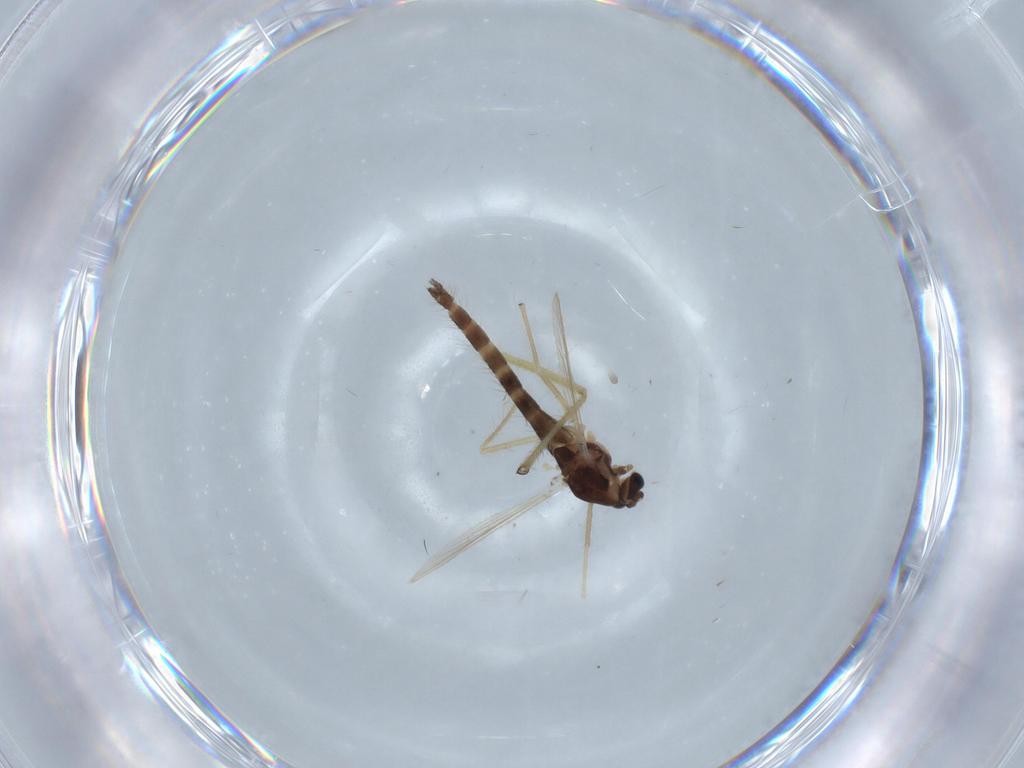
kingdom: Animalia
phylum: Arthropoda
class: Insecta
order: Diptera
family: Chironomidae
